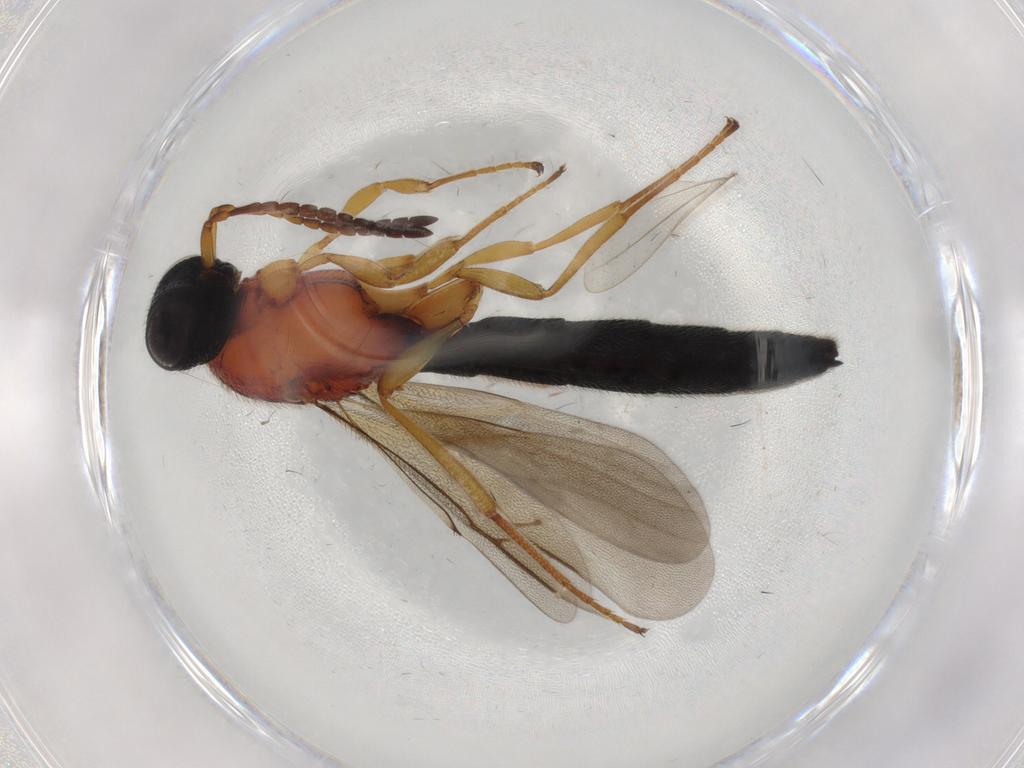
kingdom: Animalia
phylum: Arthropoda
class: Insecta
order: Hymenoptera
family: Scelionidae
